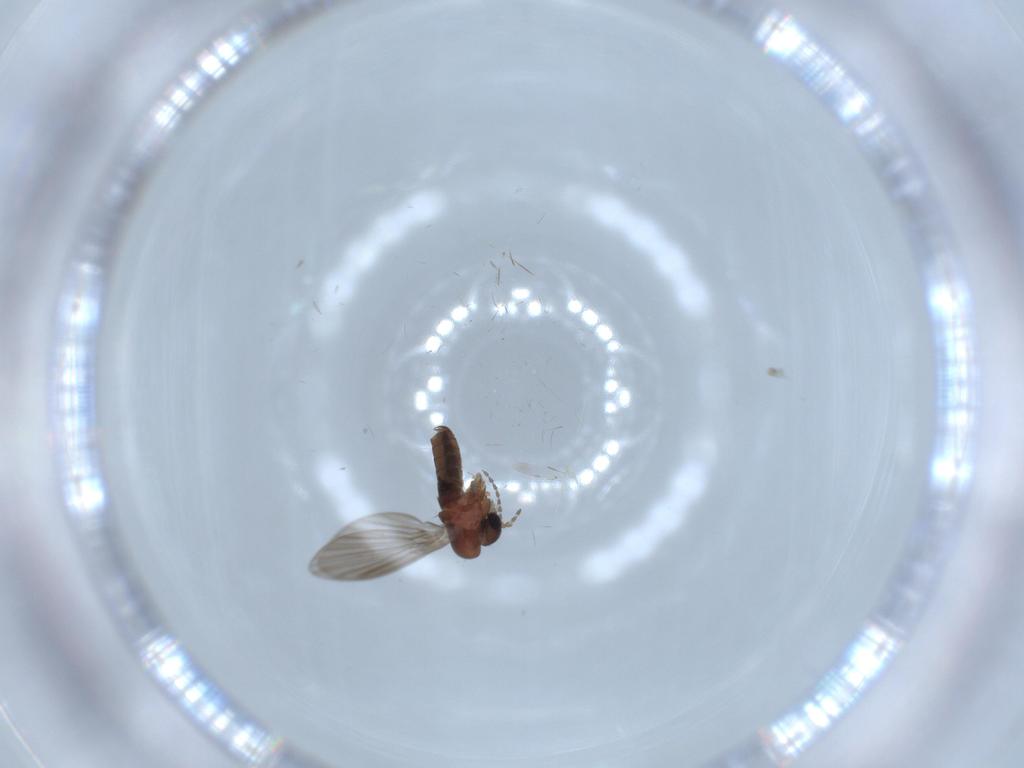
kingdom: Animalia
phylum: Arthropoda
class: Insecta
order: Diptera
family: Psychodidae
